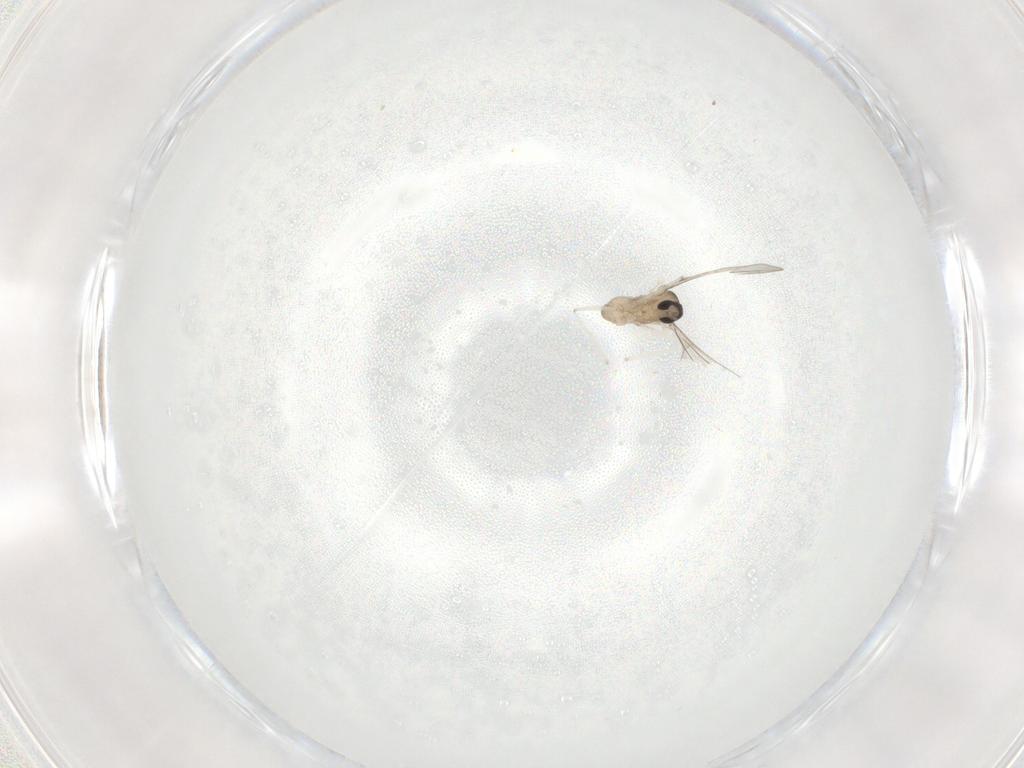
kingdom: Animalia
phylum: Arthropoda
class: Insecta
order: Diptera
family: Cecidomyiidae
